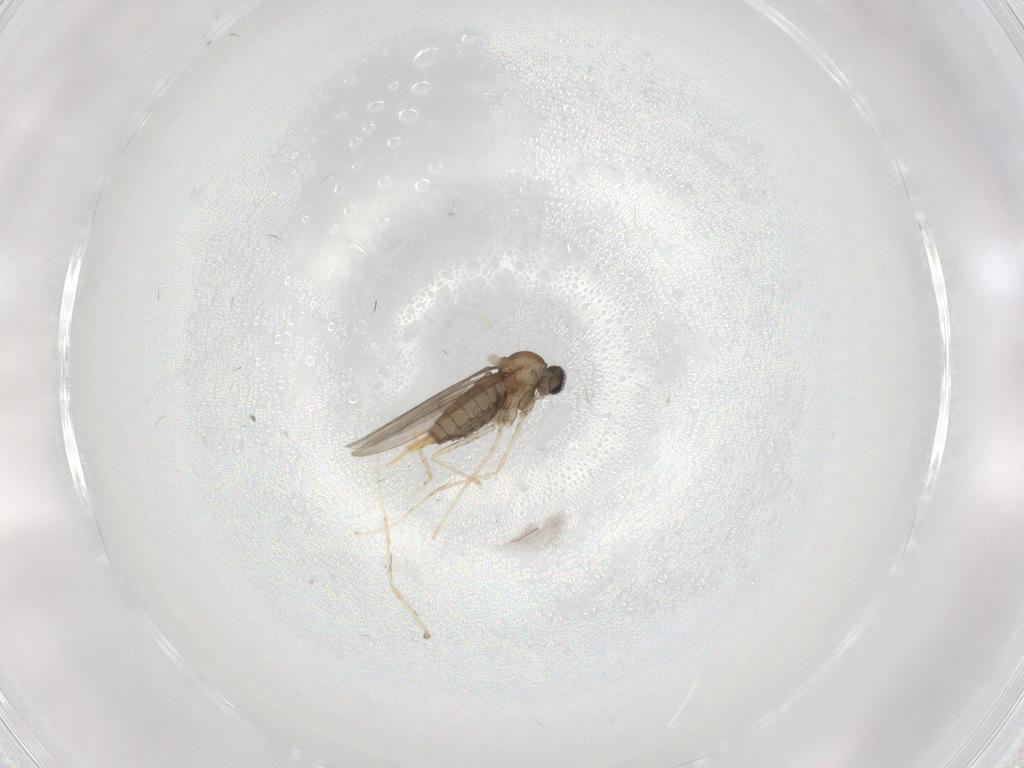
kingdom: Animalia
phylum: Arthropoda
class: Insecta
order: Diptera
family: Cecidomyiidae
